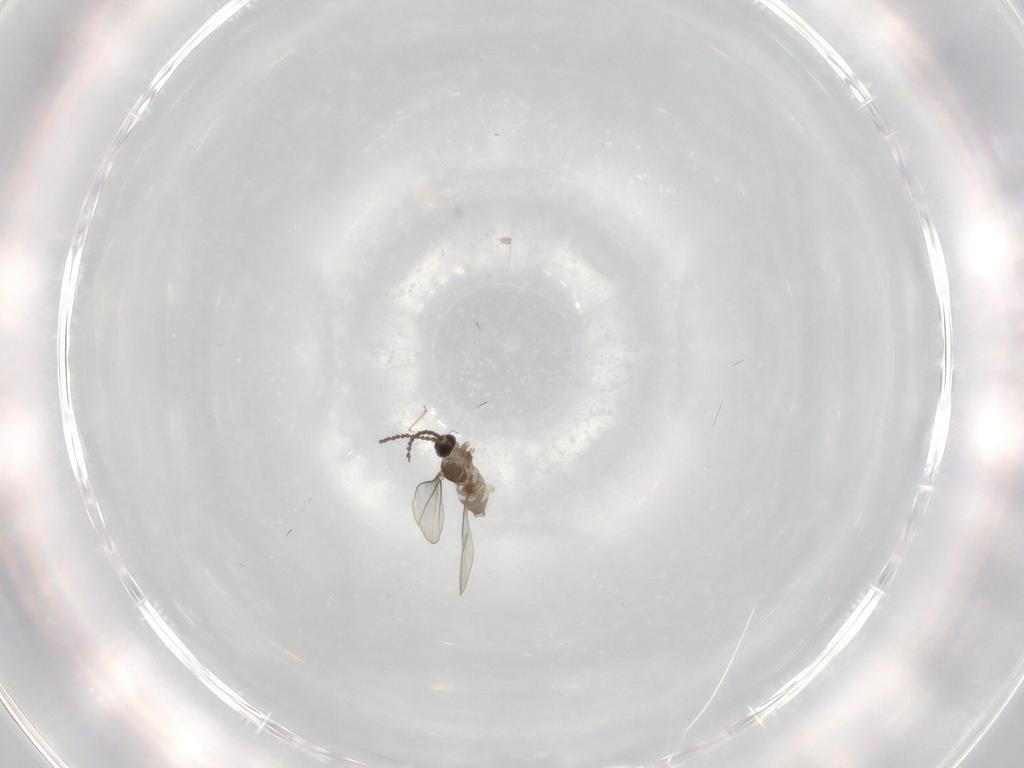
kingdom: Animalia
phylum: Arthropoda
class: Insecta
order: Diptera
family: Cecidomyiidae
